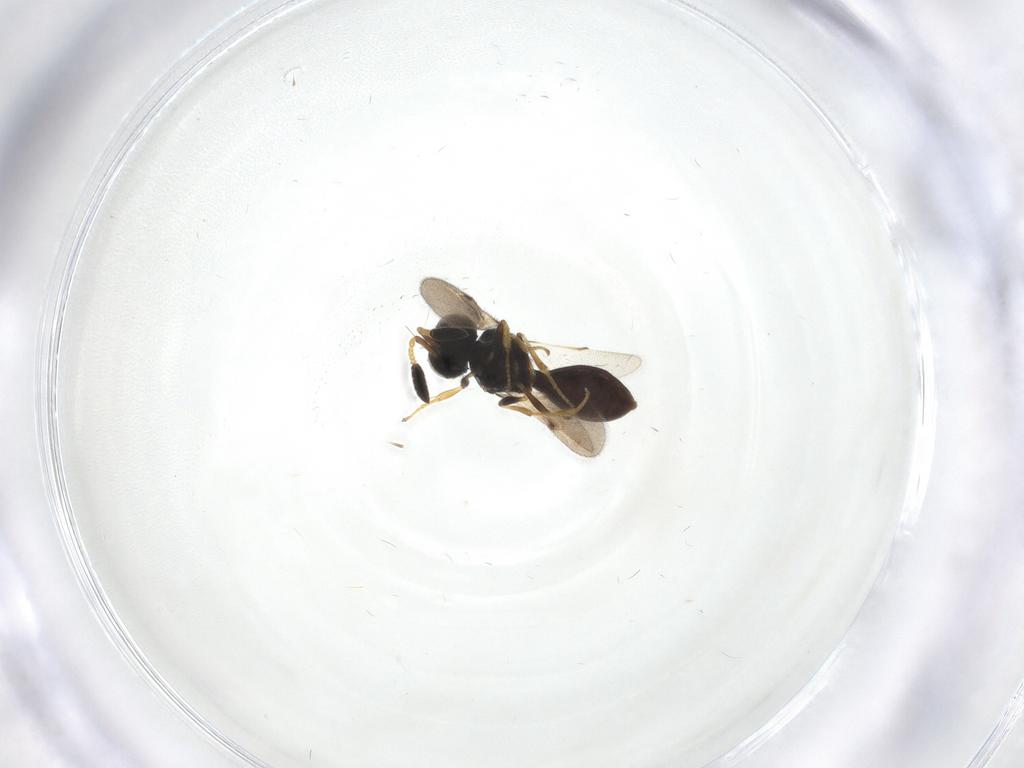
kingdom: Animalia
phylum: Arthropoda
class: Insecta
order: Hymenoptera
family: Scelionidae
